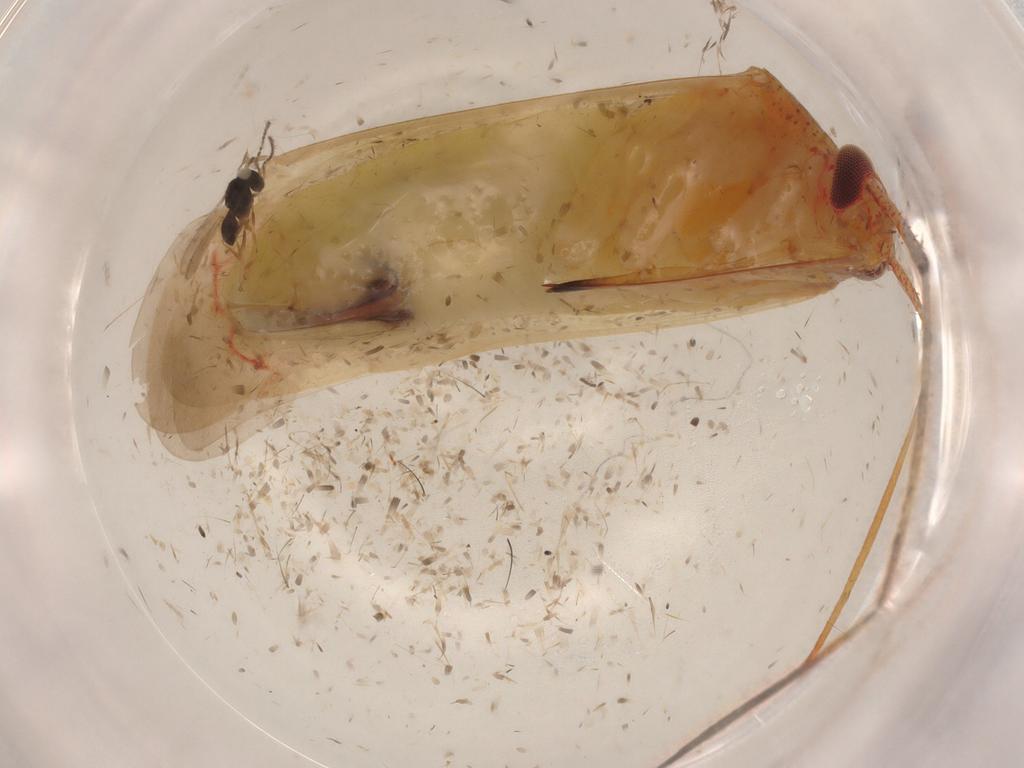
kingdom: Animalia
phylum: Arthropoda
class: Insecta
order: Hemiptera
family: Miridae
